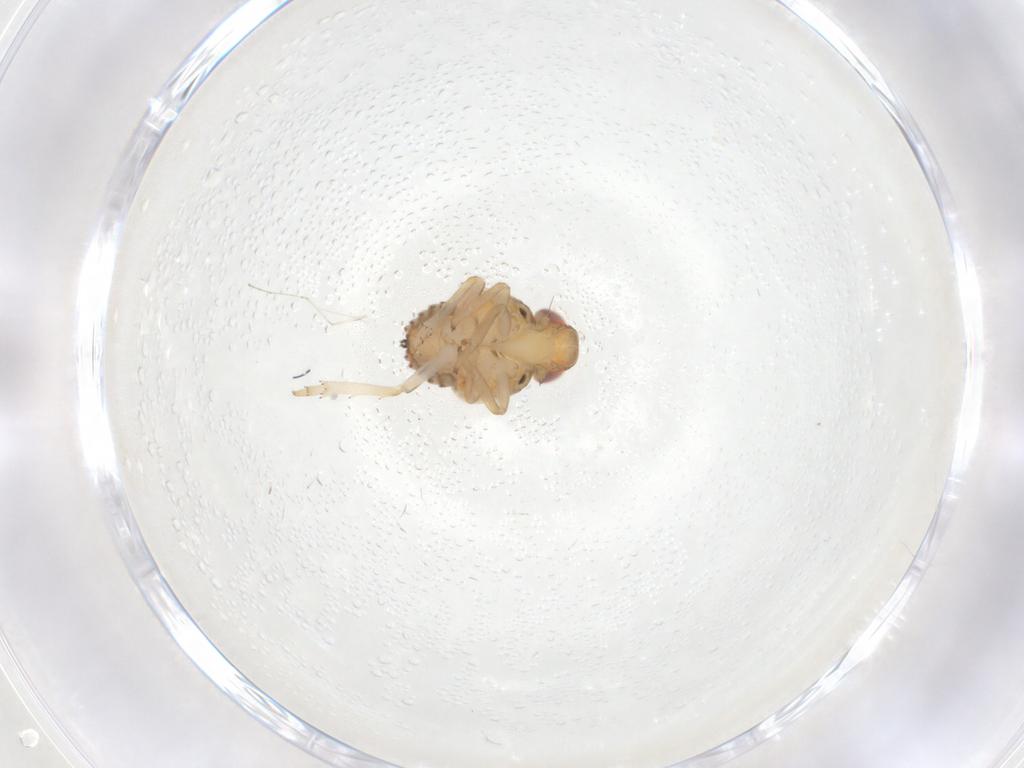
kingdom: Animalia
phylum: Arthropoda
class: Insecta
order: Hemiptera
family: Issidae
